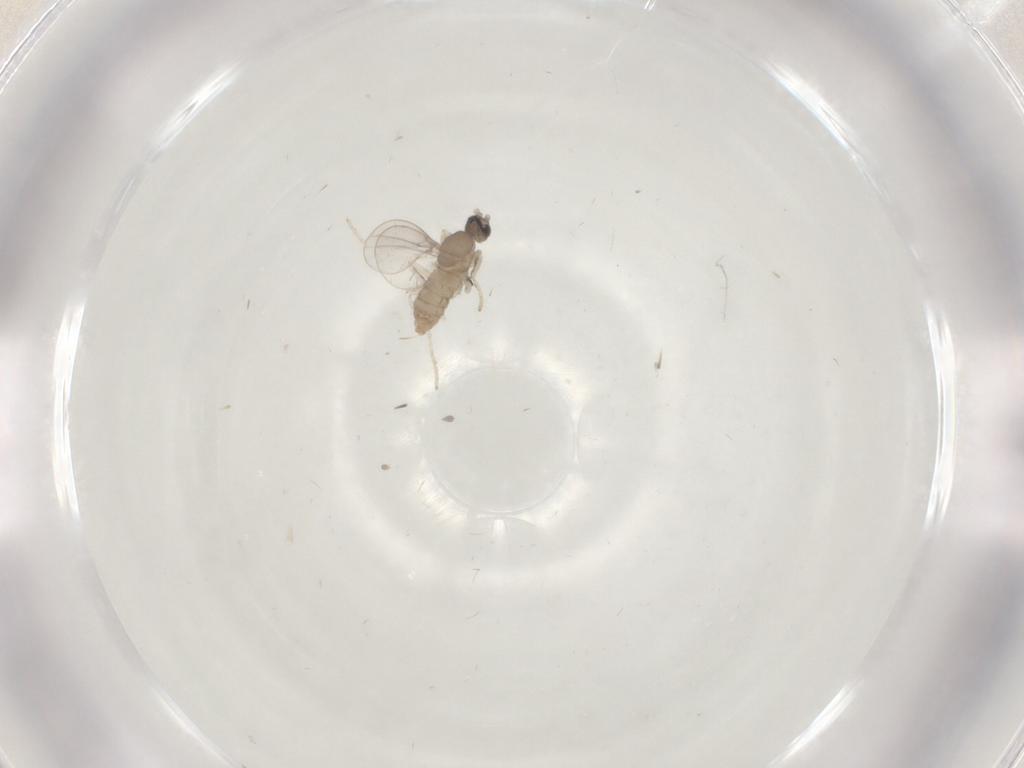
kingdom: Animalia
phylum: Arthropoda
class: Insecta
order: Diptera
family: Cecidomyiidae
